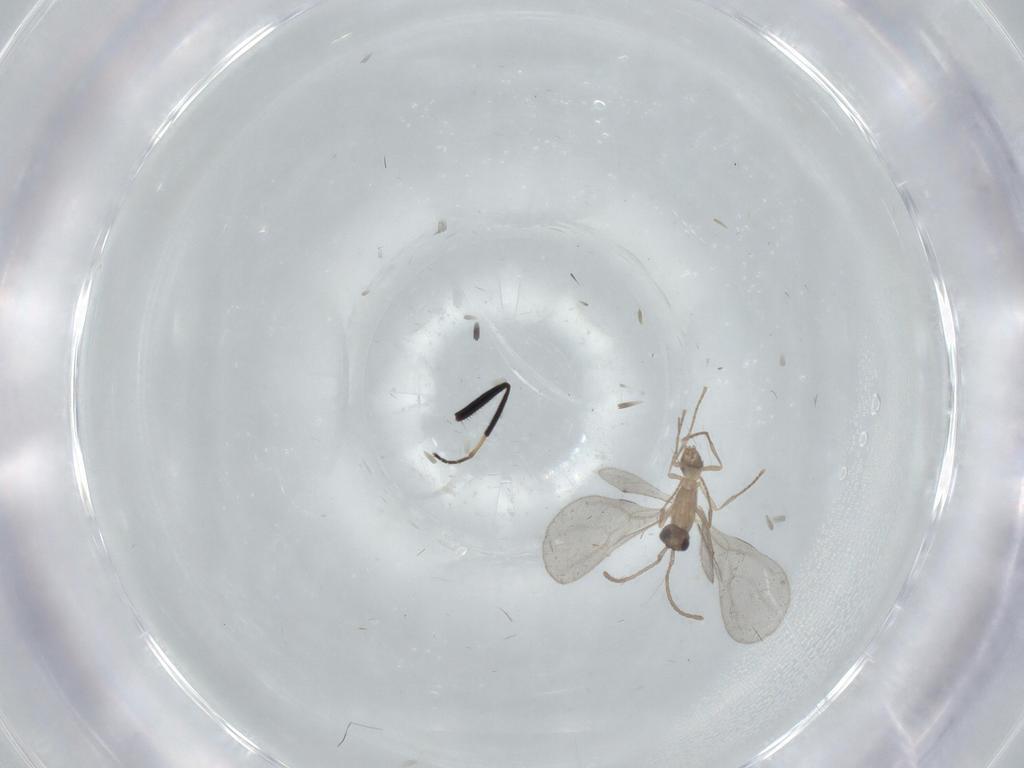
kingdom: Animalia
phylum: Arthropoda
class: Insecta
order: Hymenoptera
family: Formicidae
